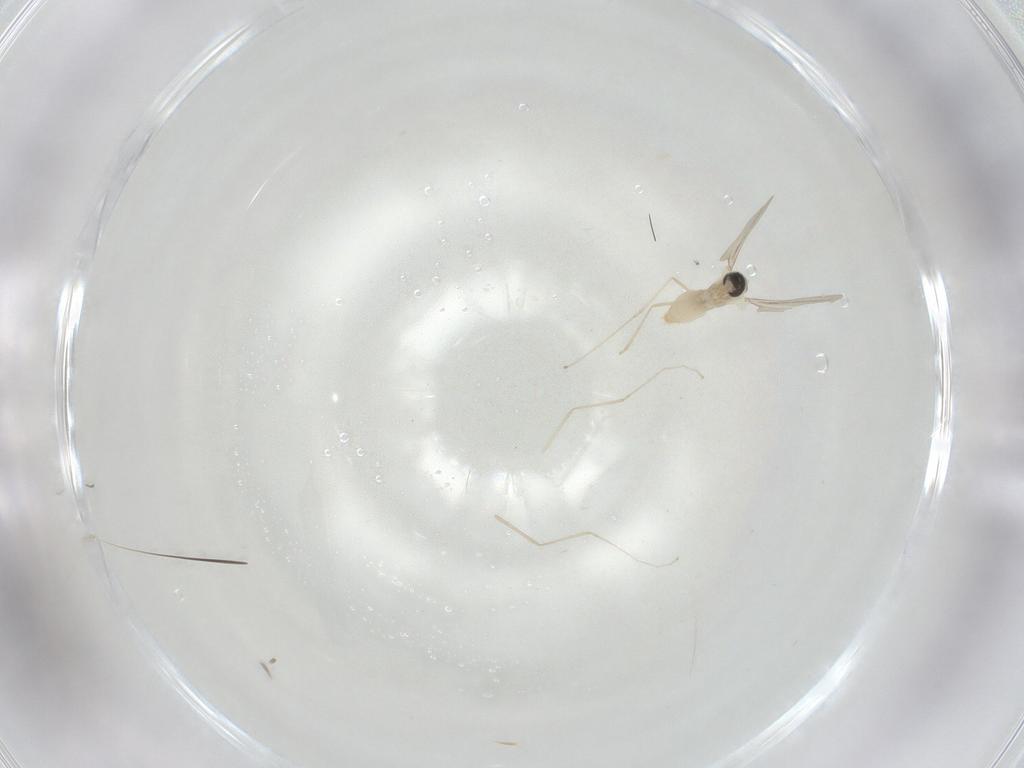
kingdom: Animalia
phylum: Arthropoda
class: Insecta
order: Diptera
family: Cecidomyiidae
